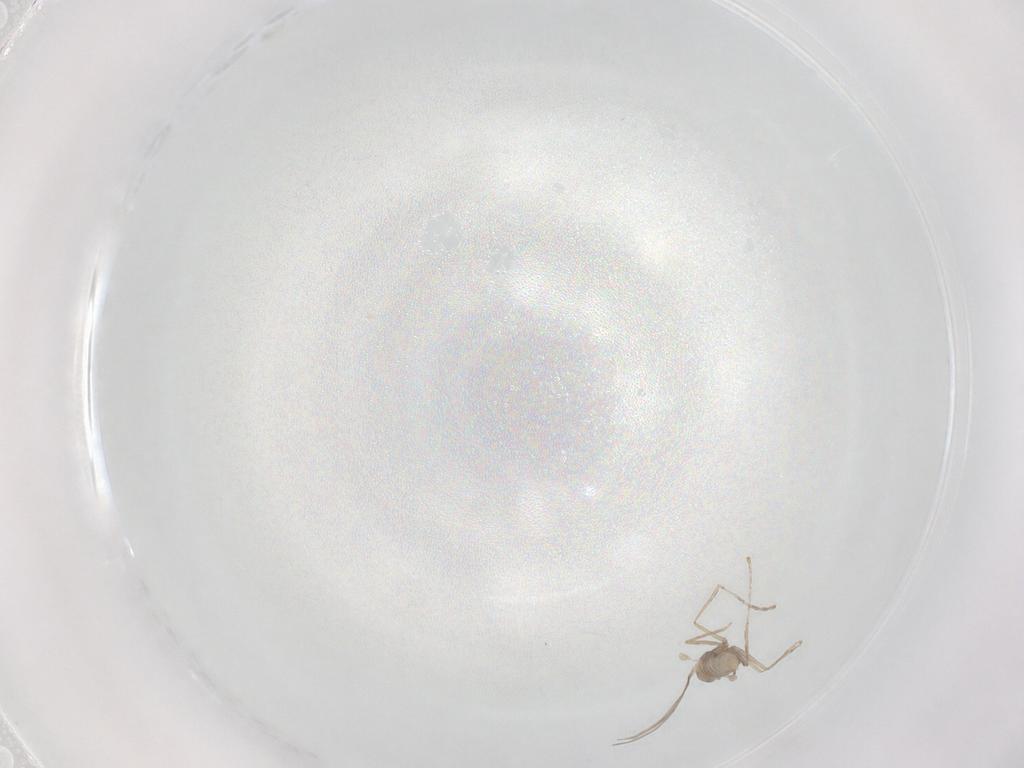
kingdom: Animalia
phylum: Arthropoda
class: Insecta
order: Diptera
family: Cecidomyiidae
